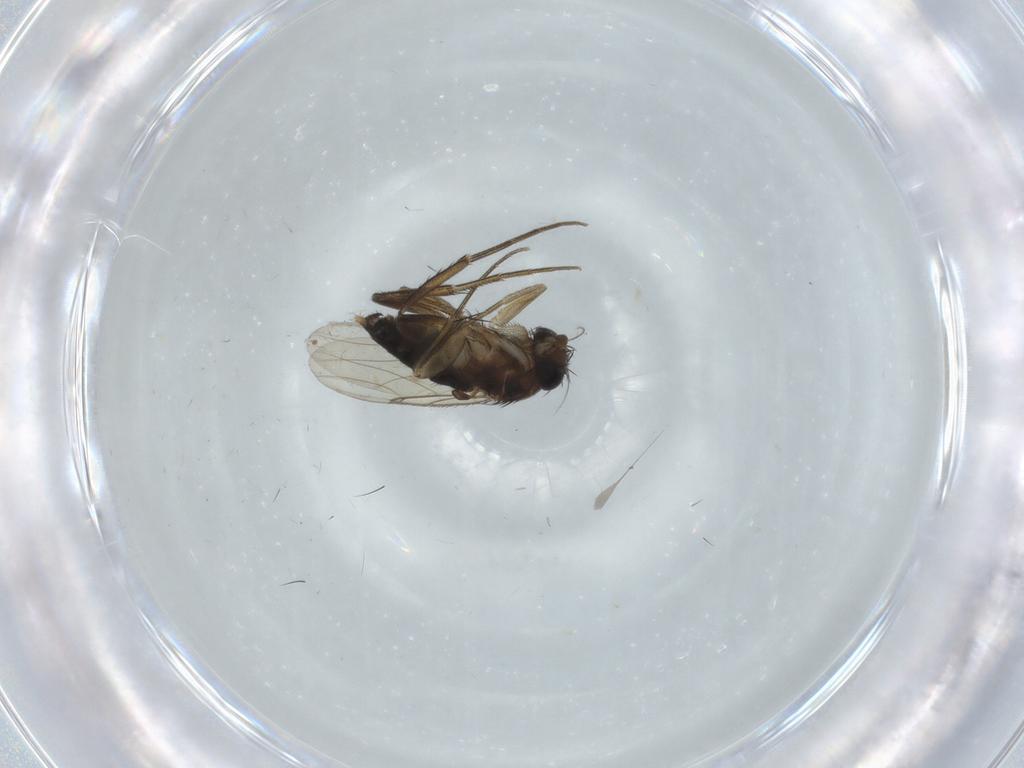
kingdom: Animalia
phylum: Arthropoda
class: Insecta
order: Diptera
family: Phoridae
